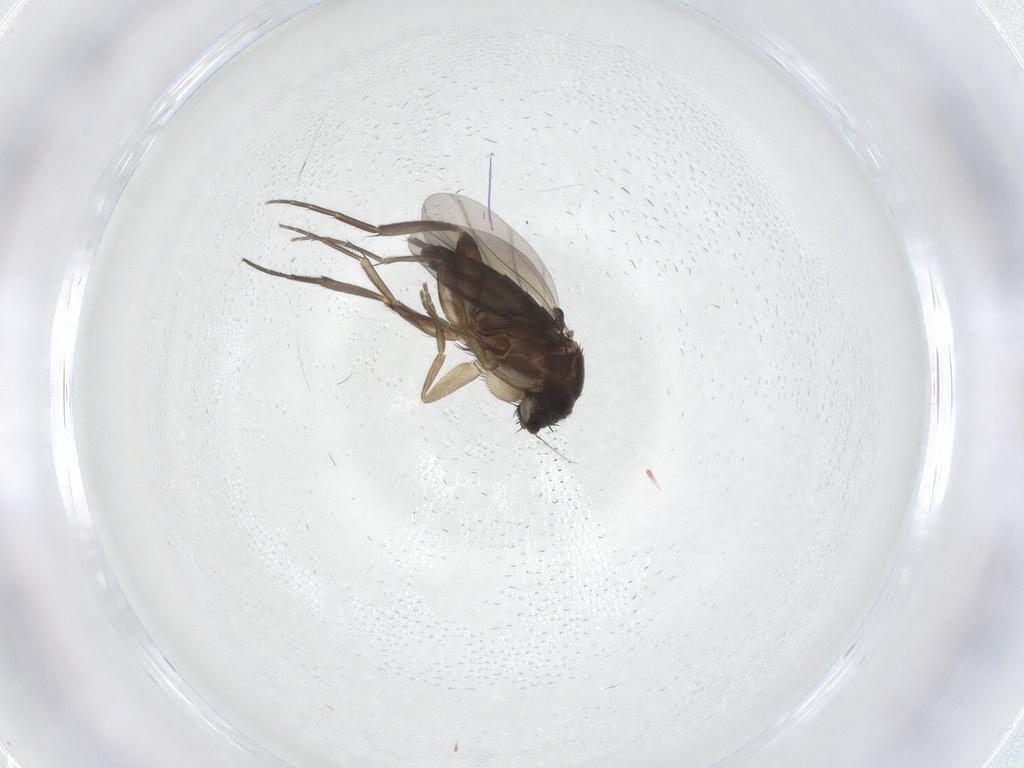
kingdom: Animalia
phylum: Arthropoda
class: Insecta
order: Diptera
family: Phoridae
